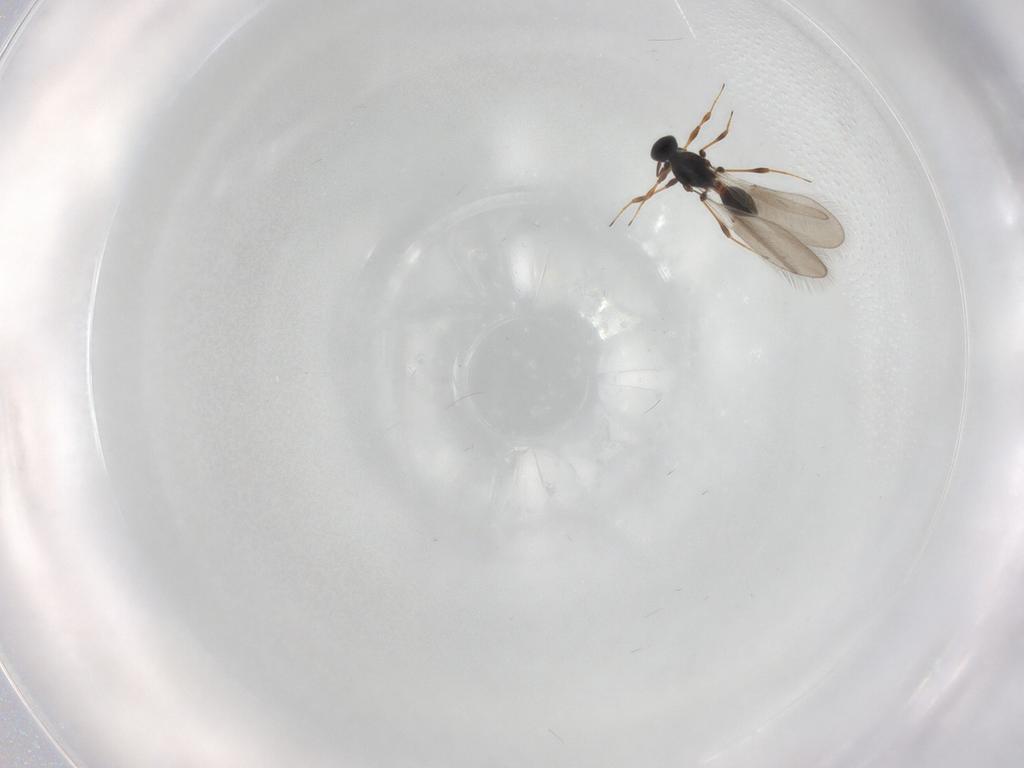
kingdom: Animalia
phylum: Arthropoda
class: Insecta
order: Hymenoptera
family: Platygastridae
